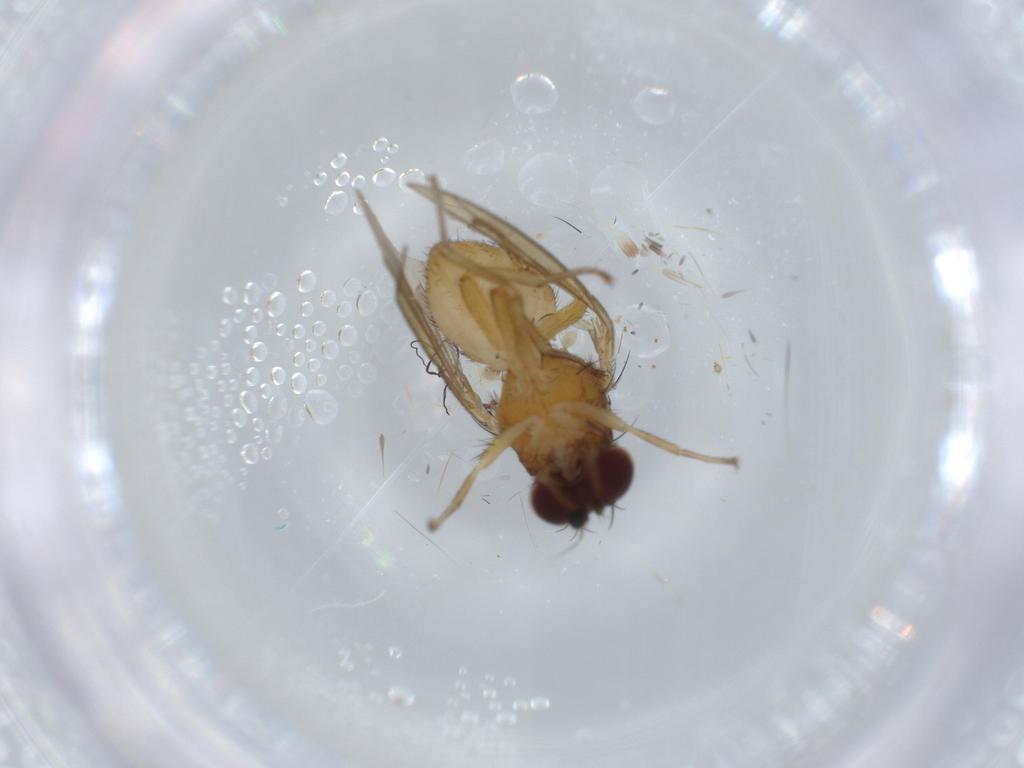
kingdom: Animalia
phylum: Arthropoda
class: Insecta
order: Diptera
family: Sphaeroceridae
